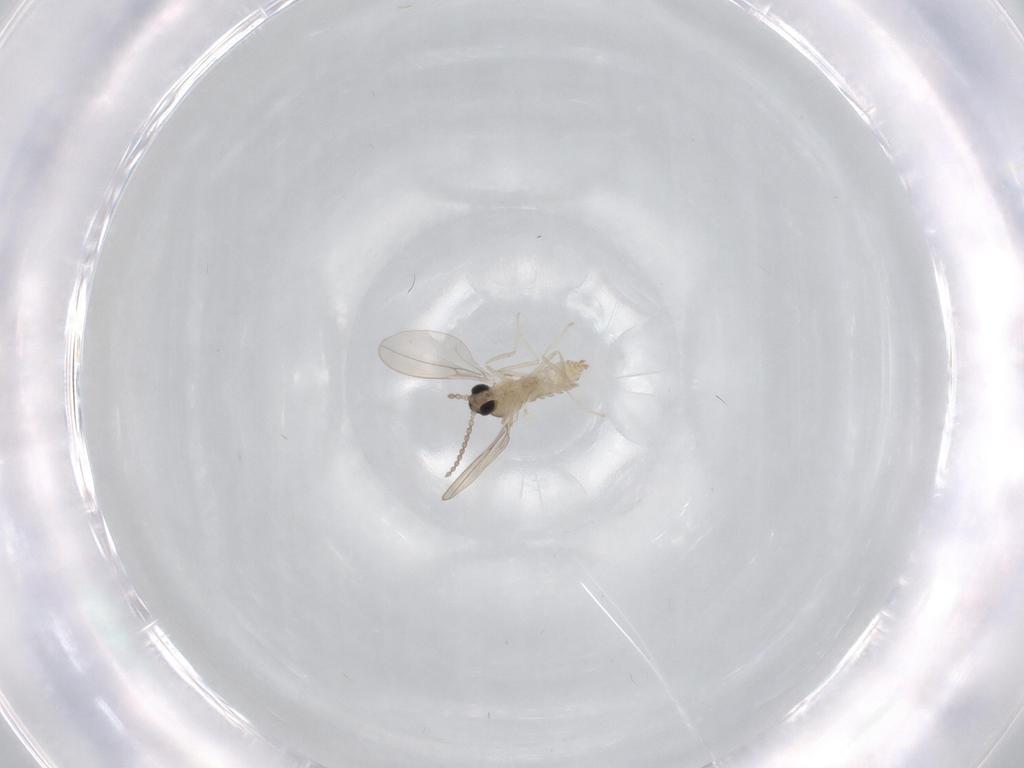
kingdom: Animalia
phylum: Arthropoda
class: Insecta
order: Diptera
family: Cecidomyiidae
